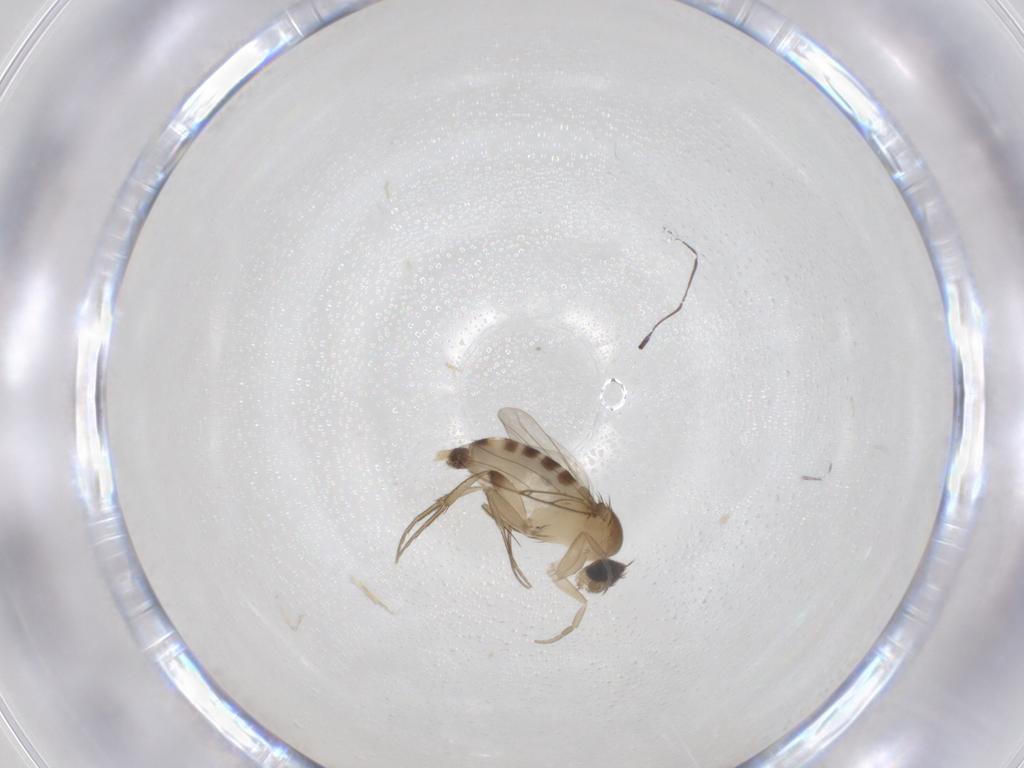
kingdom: Animalia
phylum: Arthropoda
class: Insecta
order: Diptera
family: Phoridae
